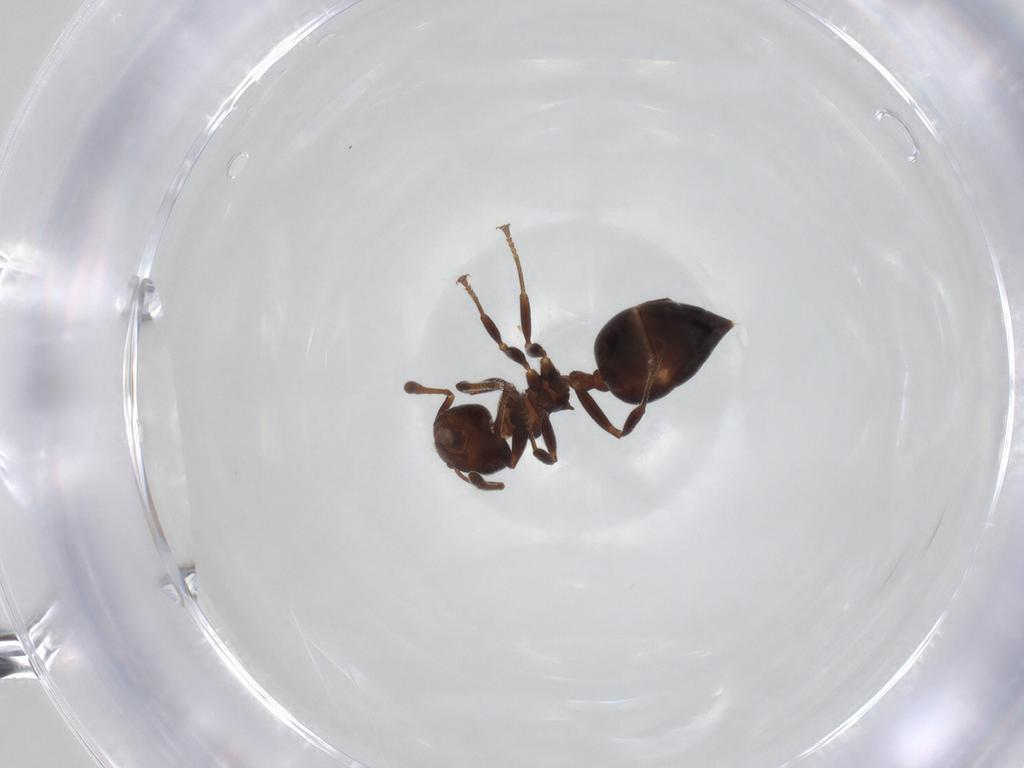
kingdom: Animalia
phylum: Arthropoda
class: Insecta
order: Hymenoptera
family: Formicidae
